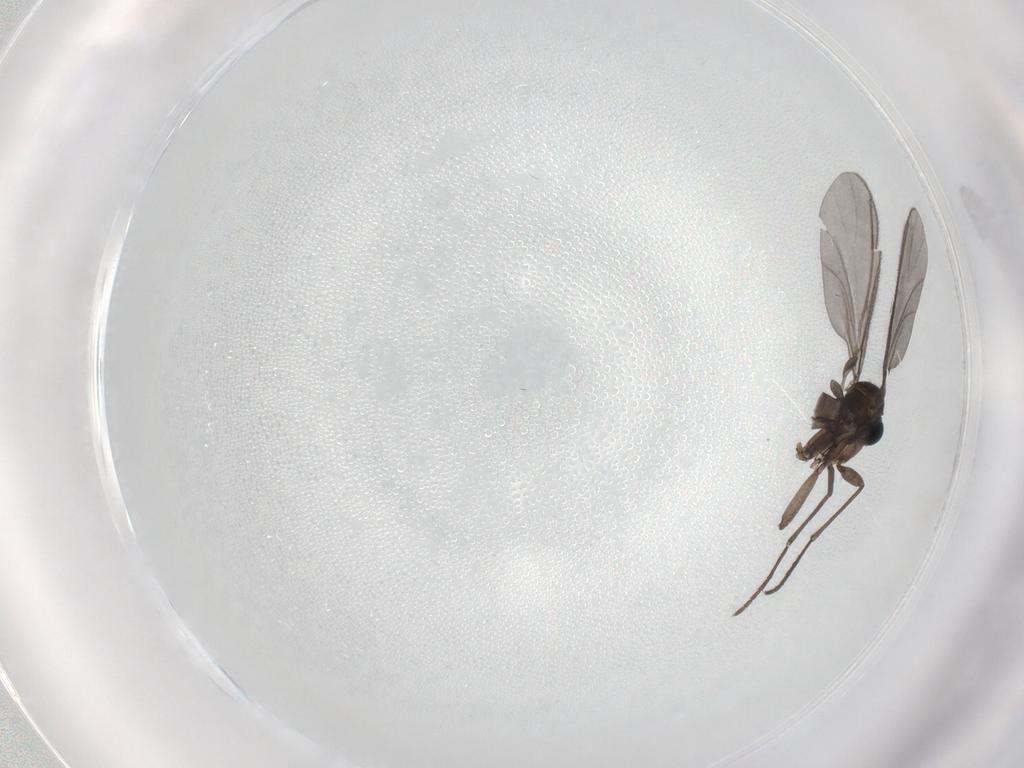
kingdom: Animalia
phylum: Arthropoda
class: Insecta
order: Diptera
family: Sciaridae
